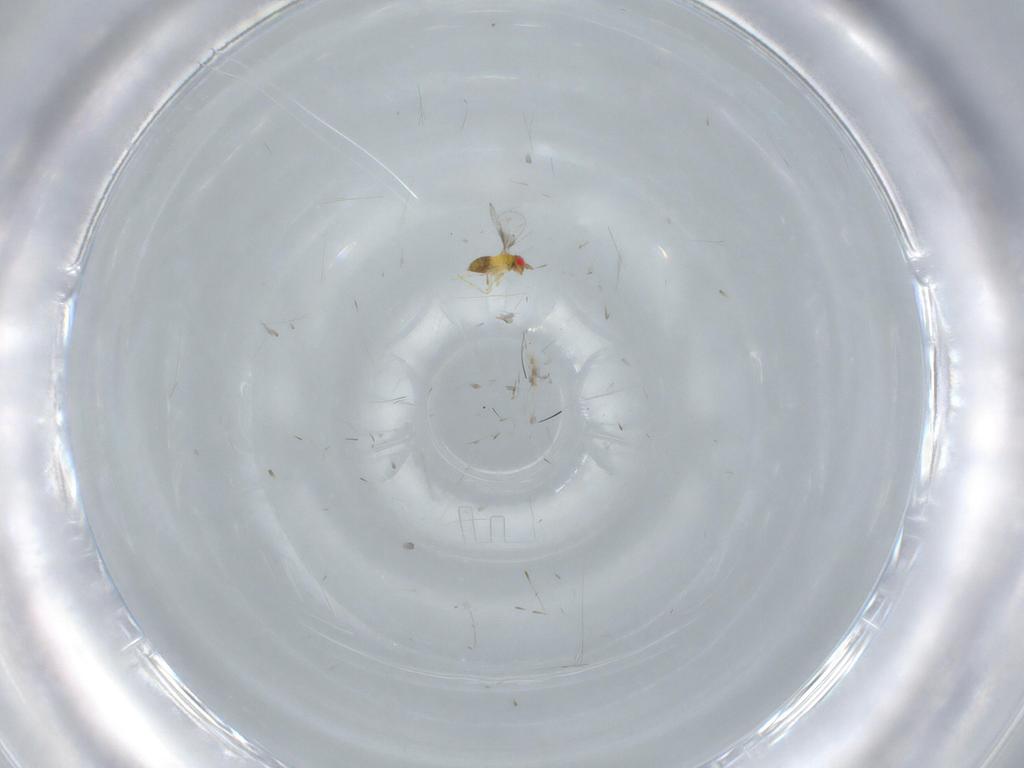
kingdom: Animalia
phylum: Arthropoda
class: Insecta
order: Hymenoptera
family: Trichogrammatidae
